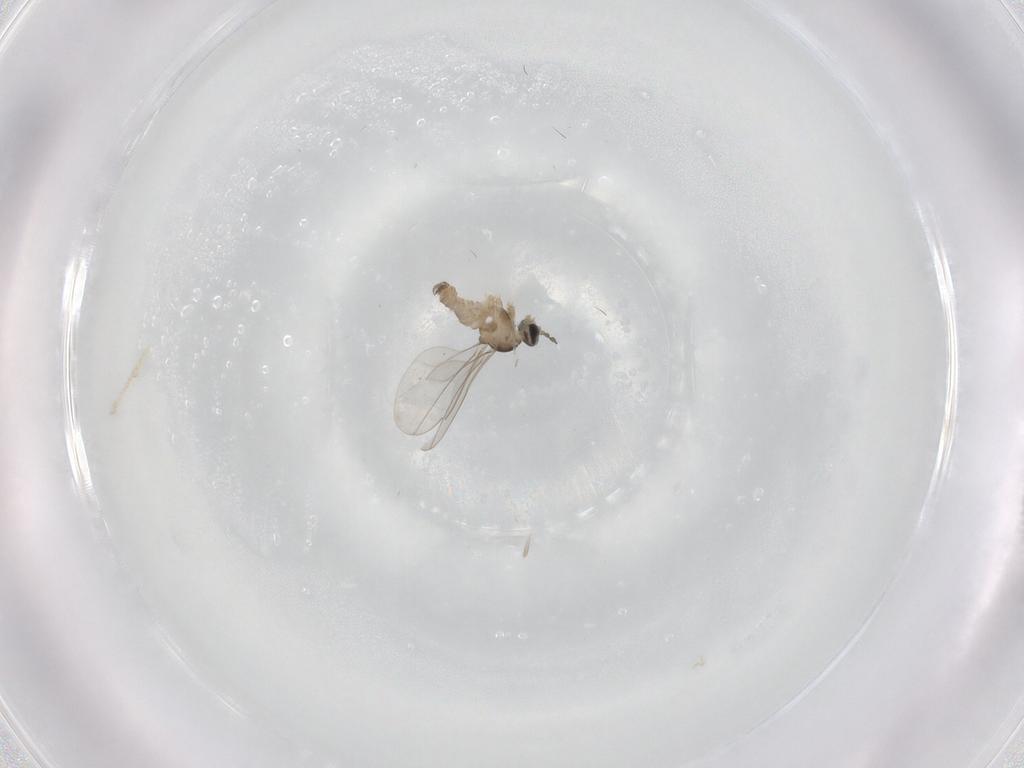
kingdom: Animalia
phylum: Arthropoda
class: Insecta
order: Diptera
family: Cecidomyiidae
